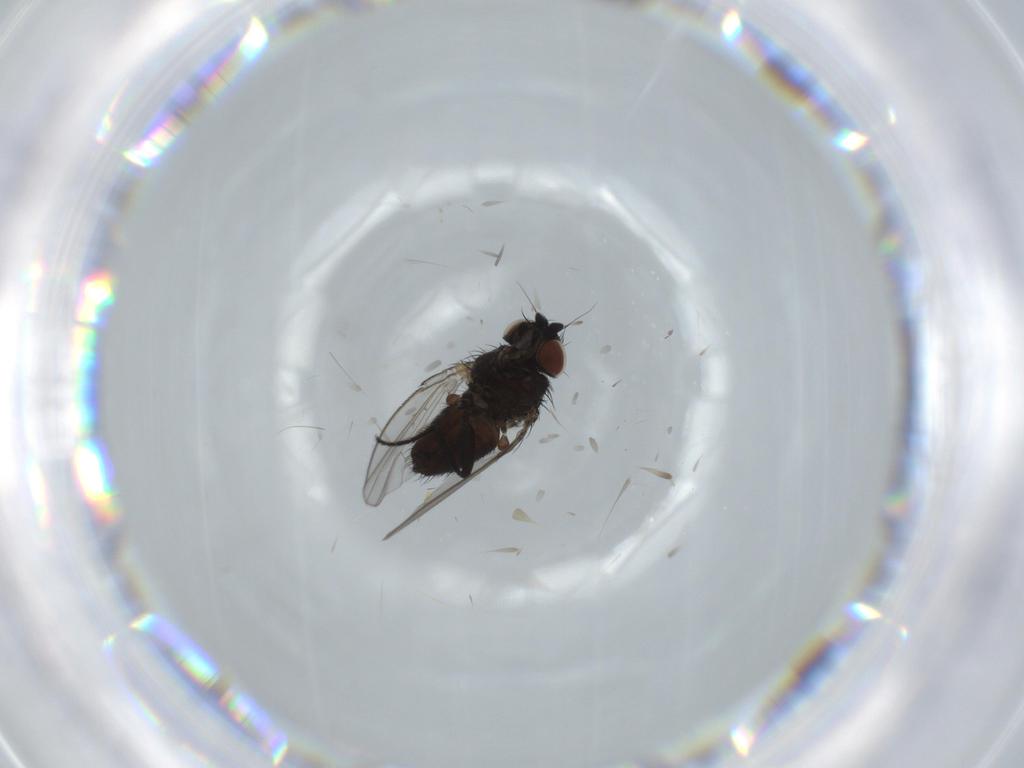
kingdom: Animalia
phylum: Arthropoda
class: Insecta
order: Diptera
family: Milichiidae
